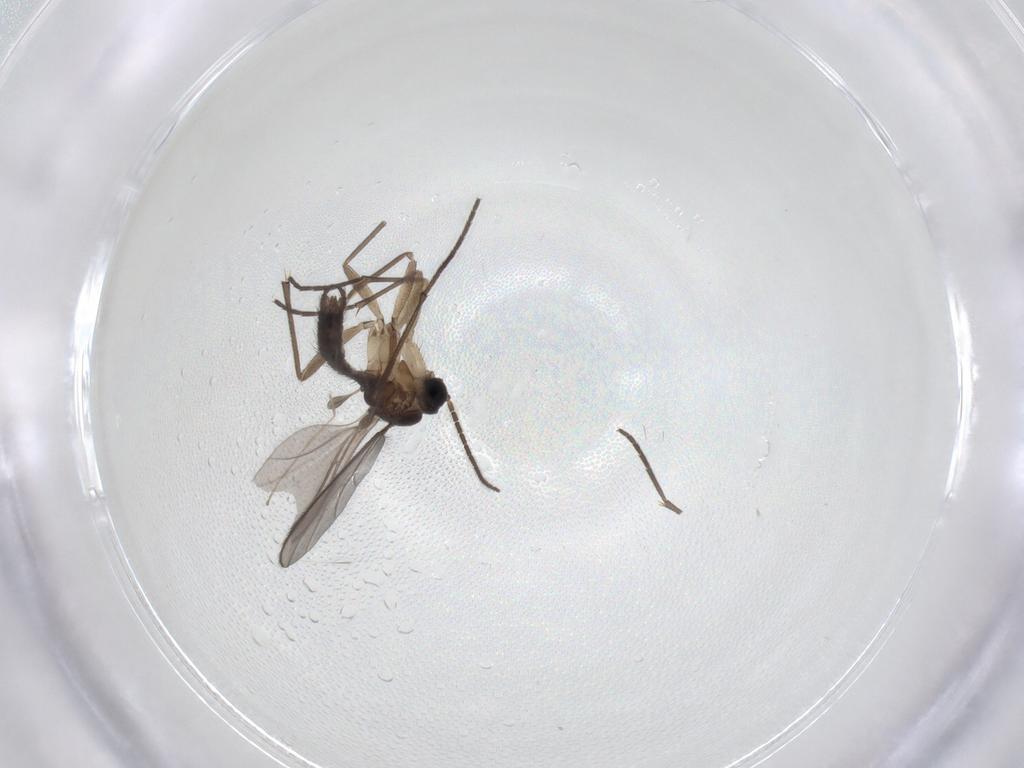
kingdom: Animalia
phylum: Arthropoda
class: Insecta
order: Diptera
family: Sciaridae
